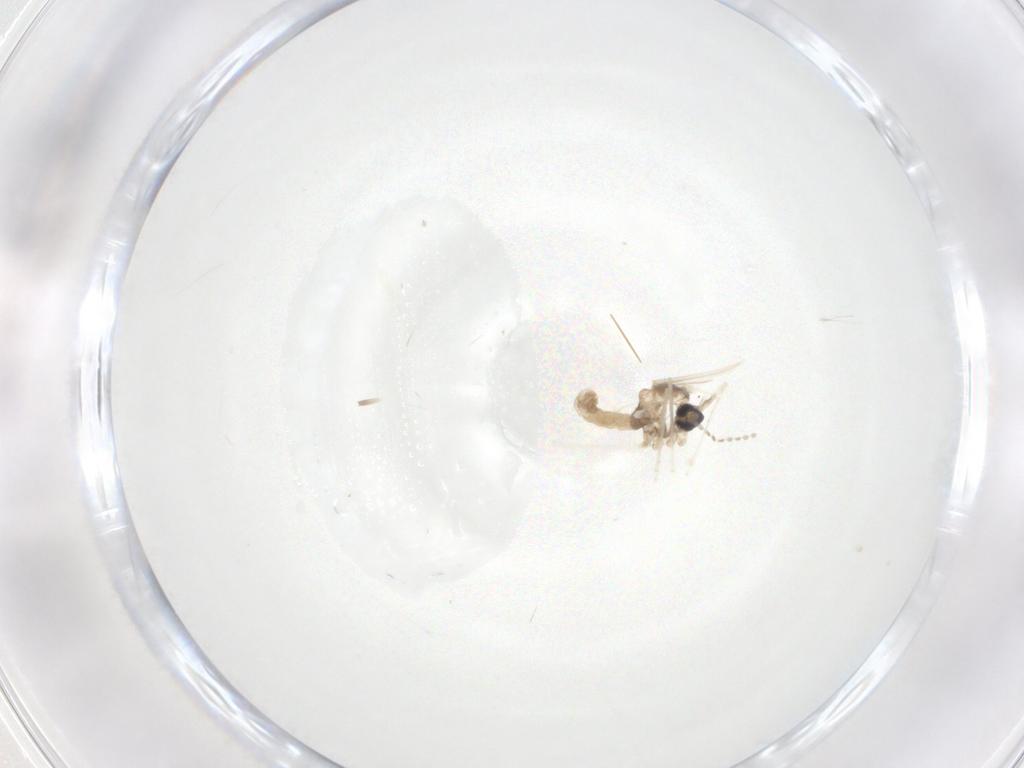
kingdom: Animalia
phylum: Arthropoda
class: Insecta
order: Diptera
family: Cecidomyiidae
